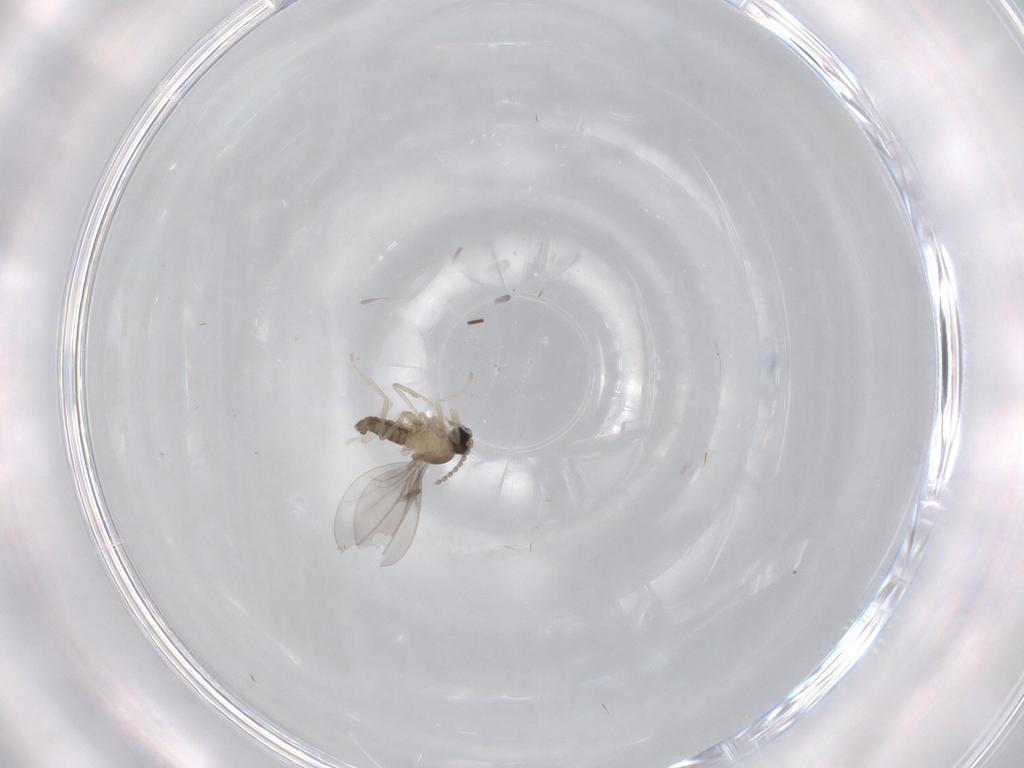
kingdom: Animalia
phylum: Arthropoda
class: Insecta
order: Diptera
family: Cecidomyiidae
